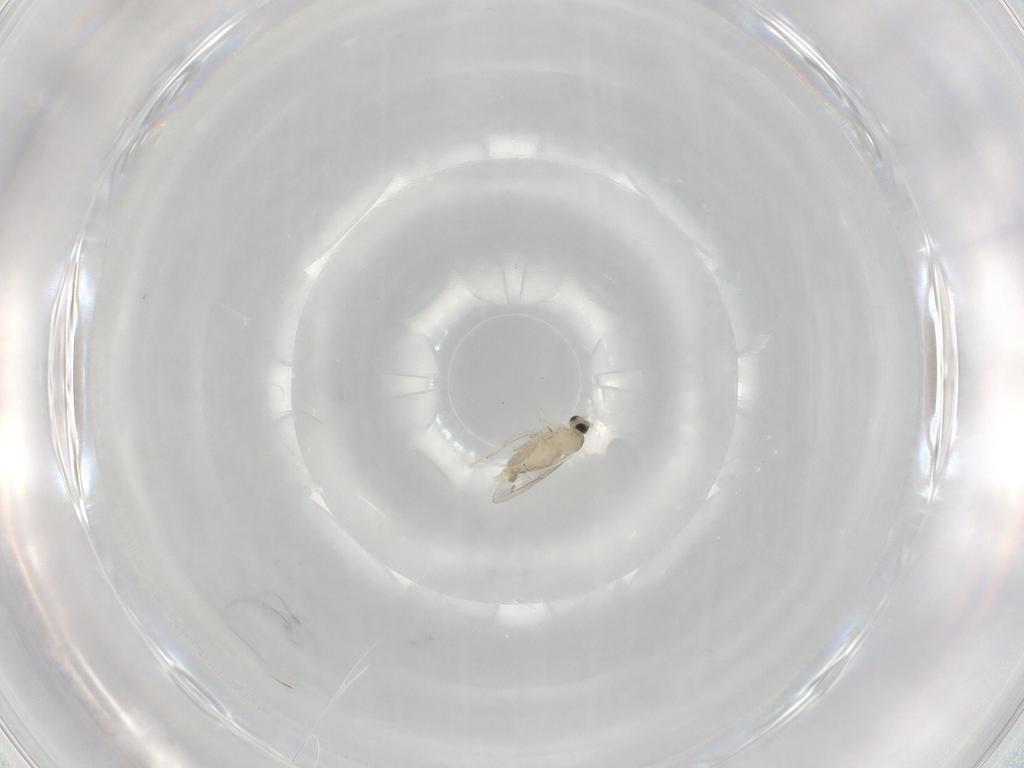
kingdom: Animalia
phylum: Arthropoda
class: Insecta
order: Diptera
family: Cecidomyiidae
